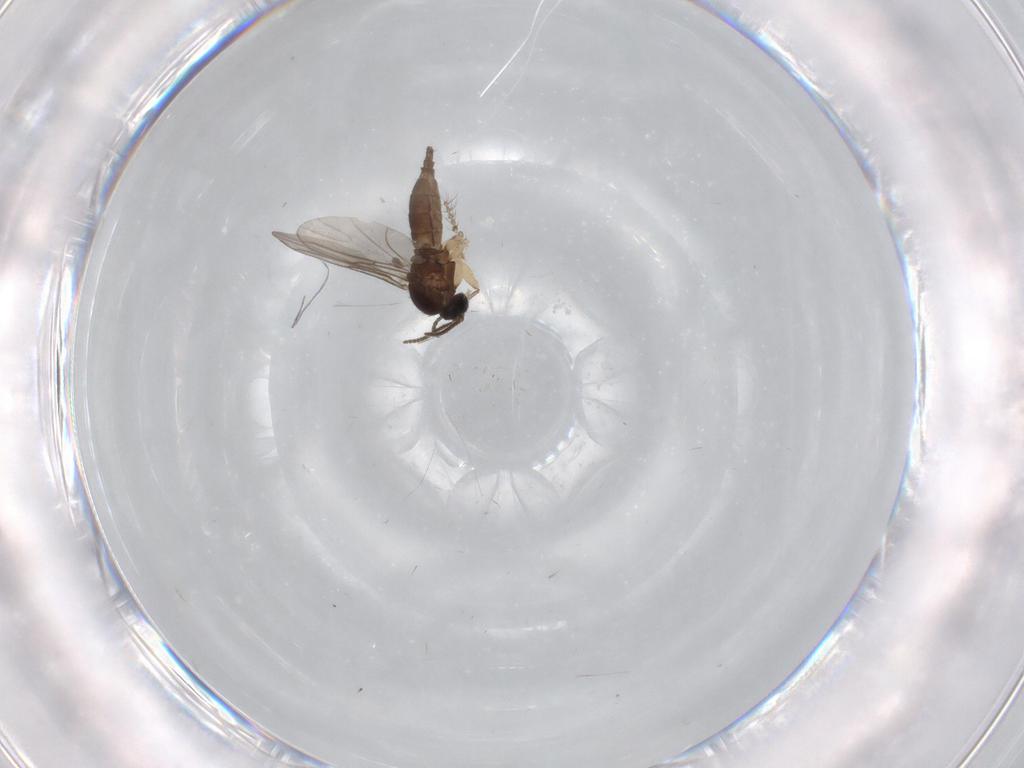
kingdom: Animalia
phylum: Arthropoda
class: Insecta
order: Diptera
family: Sciaridae
